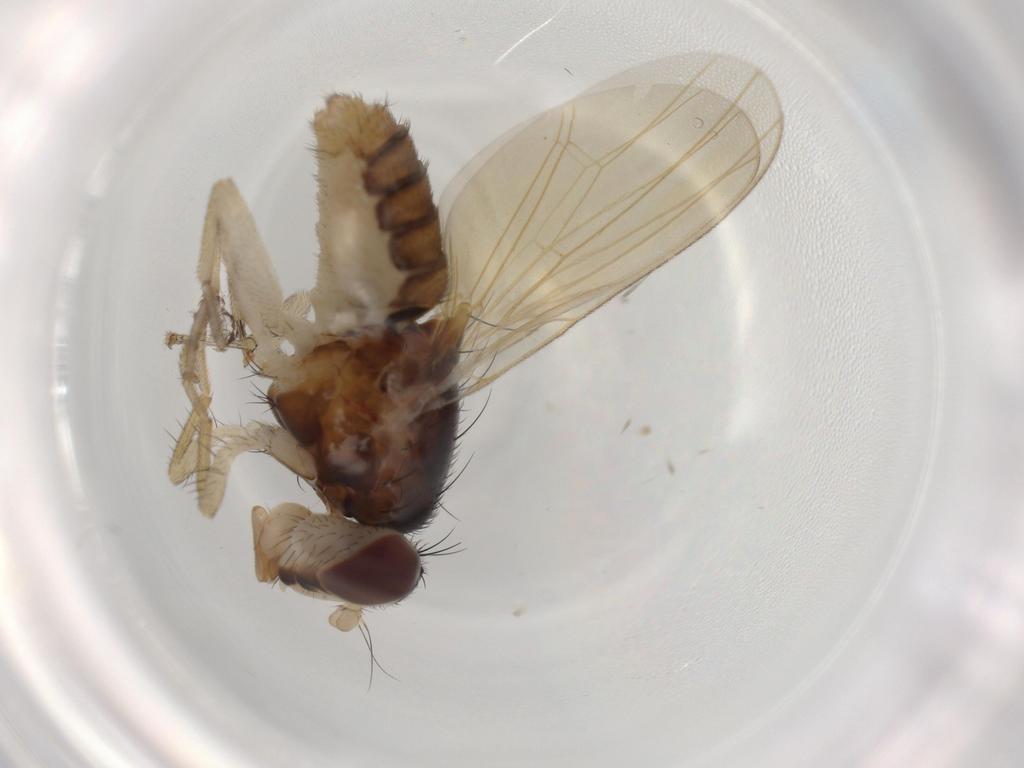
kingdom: Animalia
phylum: Arthropoda
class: Insecta
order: Diptera
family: Lauxaniidae
